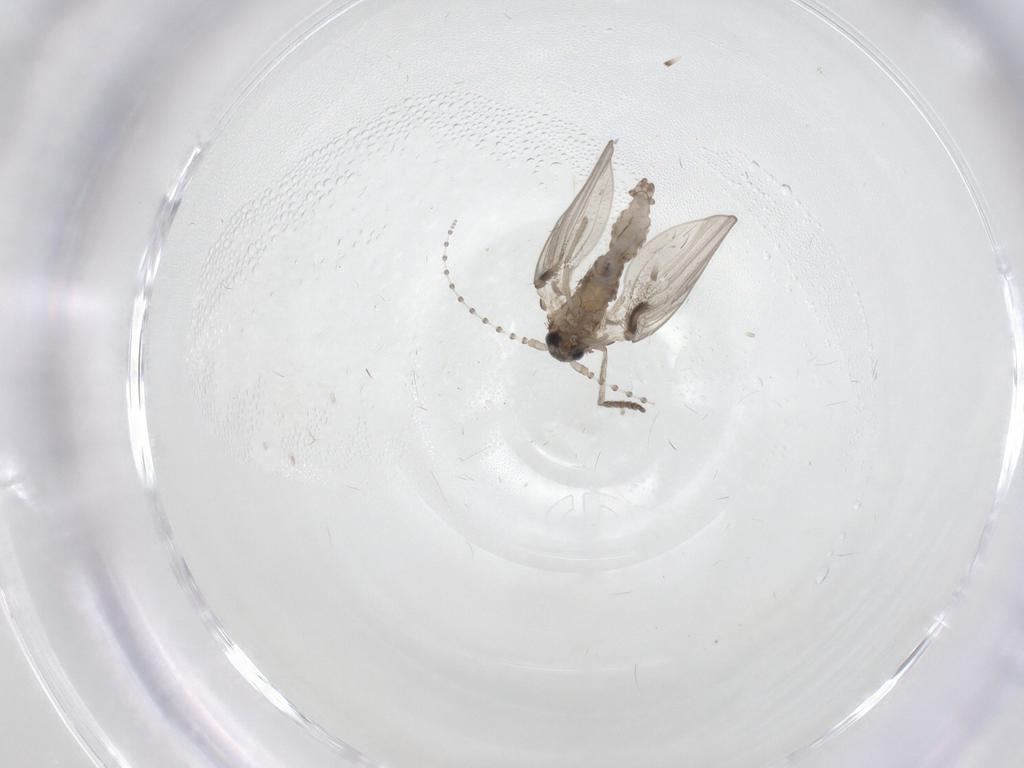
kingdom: Animalia
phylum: Arthropoda
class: Insecta
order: Diptera
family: Psychodidae
